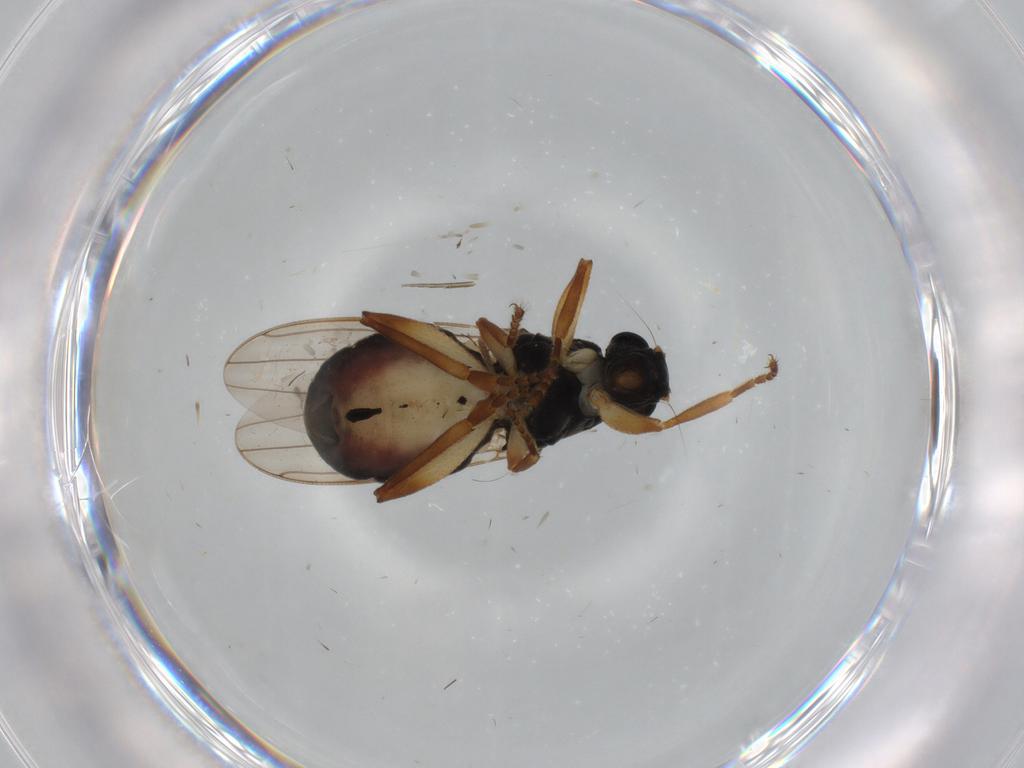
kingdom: Animalia
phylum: Arthropoda
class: Insecta
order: Diptera
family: Sphaeroceridae
